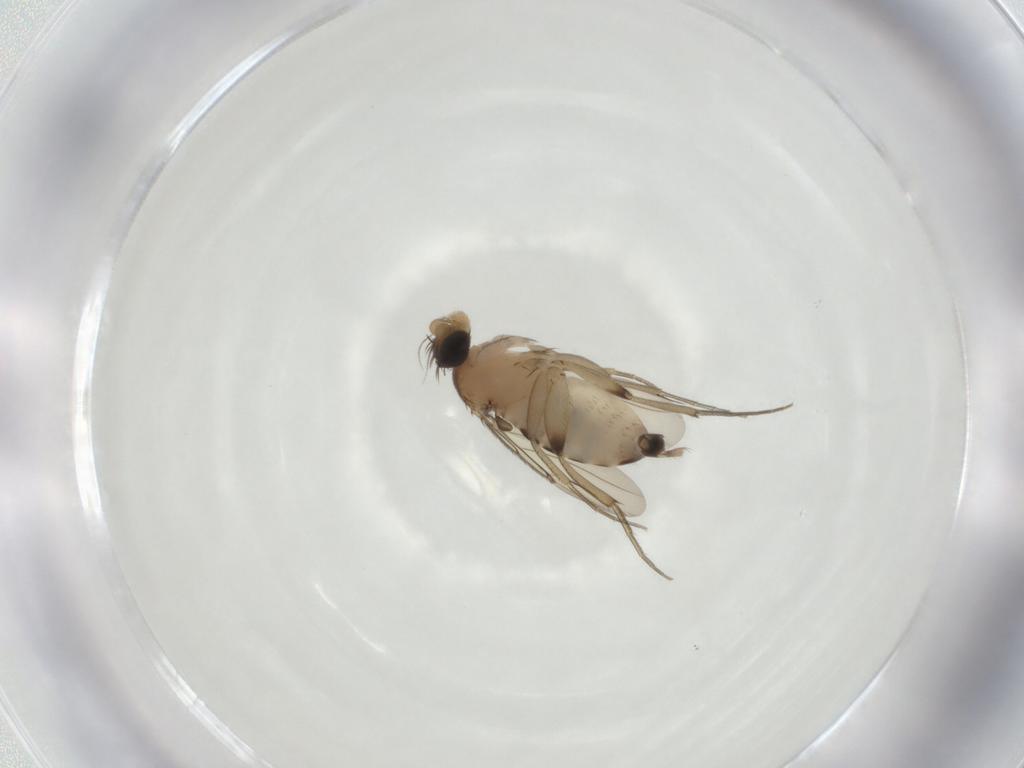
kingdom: Animalia
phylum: Arthropoda
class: Insecta
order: Diptera
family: Phoridae
